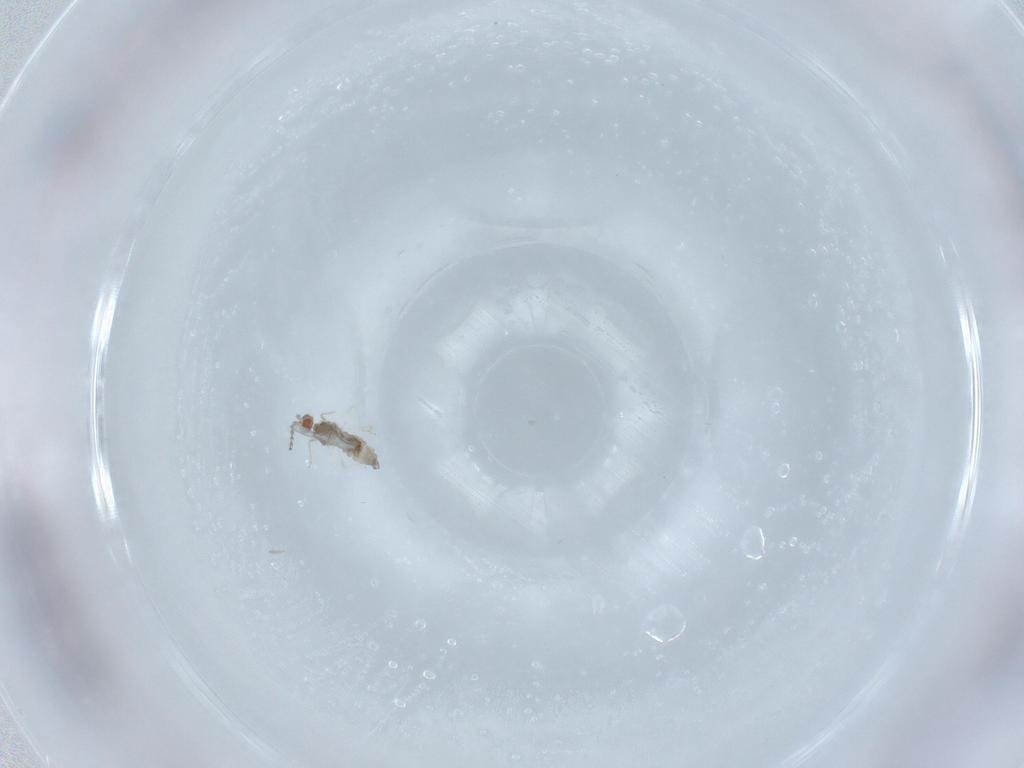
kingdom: Animalia
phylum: Arthropoda
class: Insecta
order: Diptera
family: Cecidomyiidae
